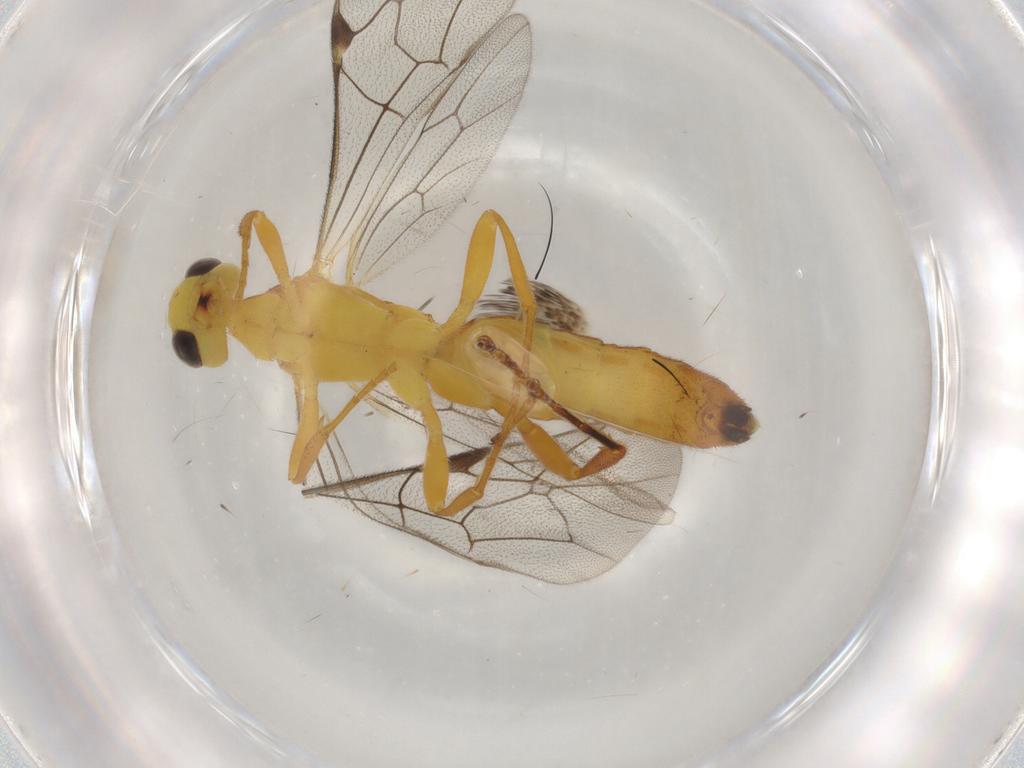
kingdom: Animalia
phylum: Arthropoda
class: Insecta
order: Hymenoptera
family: Ichneumonidae
